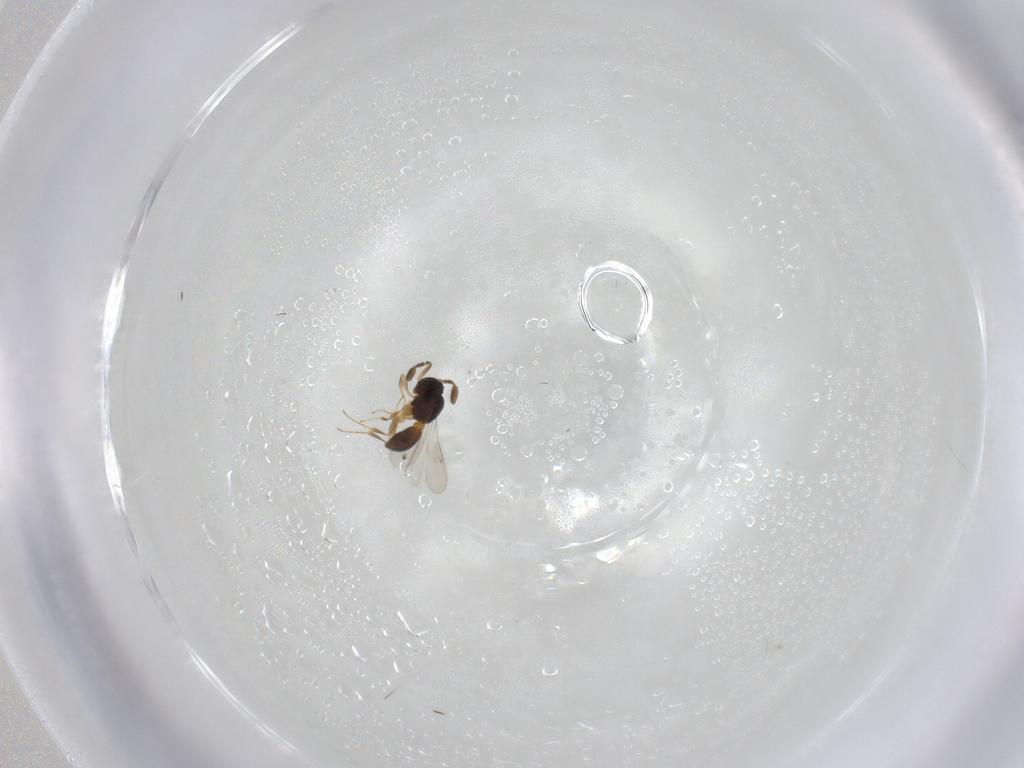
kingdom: Animalia
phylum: Arthropoda
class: Insecta
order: Hymenoptera
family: Scelionidae
